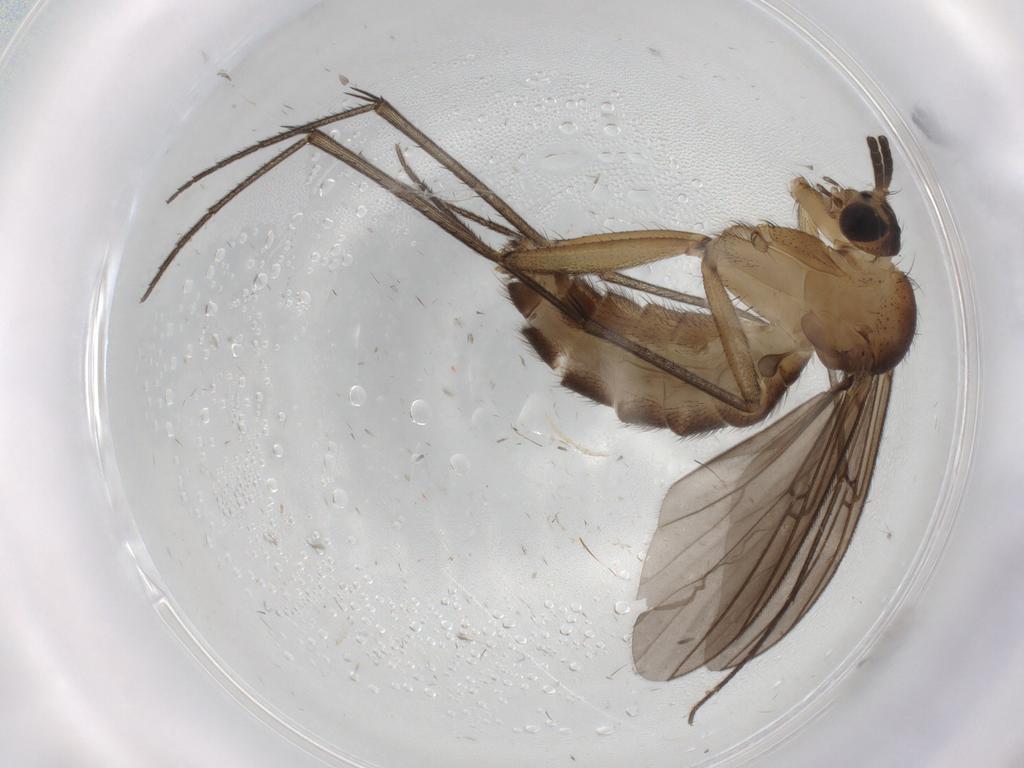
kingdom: Animalia
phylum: Arthropoda
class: Insecta
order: Diptera
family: Mycetophilidae
